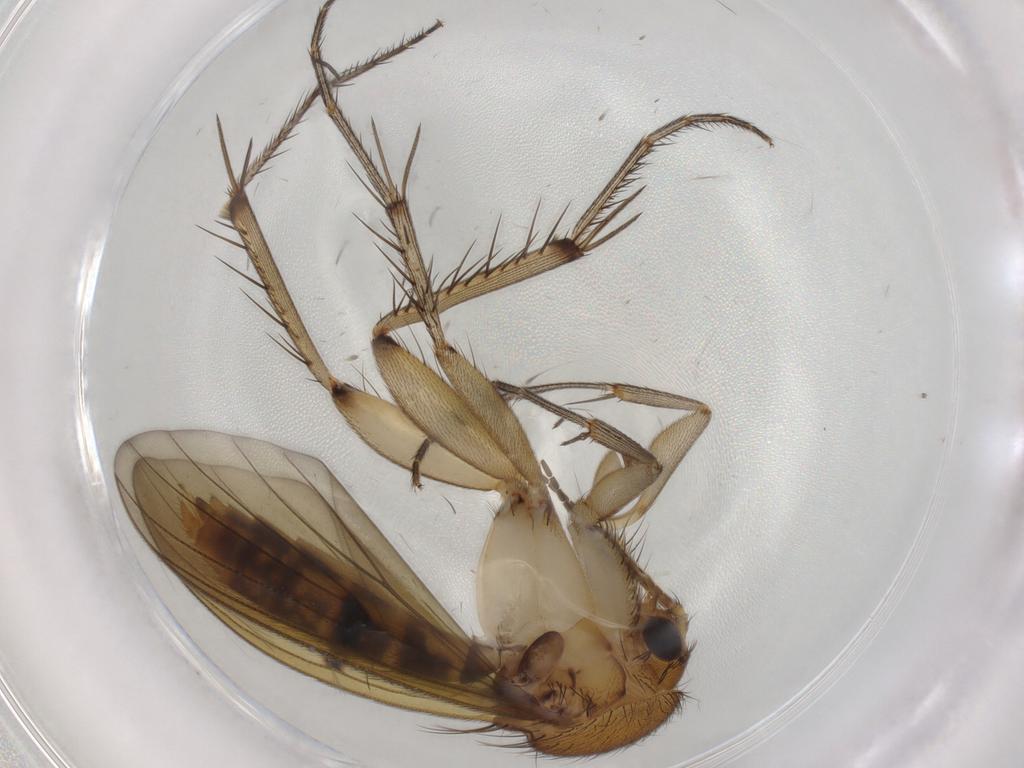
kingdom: Animalia
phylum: Arthropoda
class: Insecta
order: Diptera
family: Mycetophilidae
